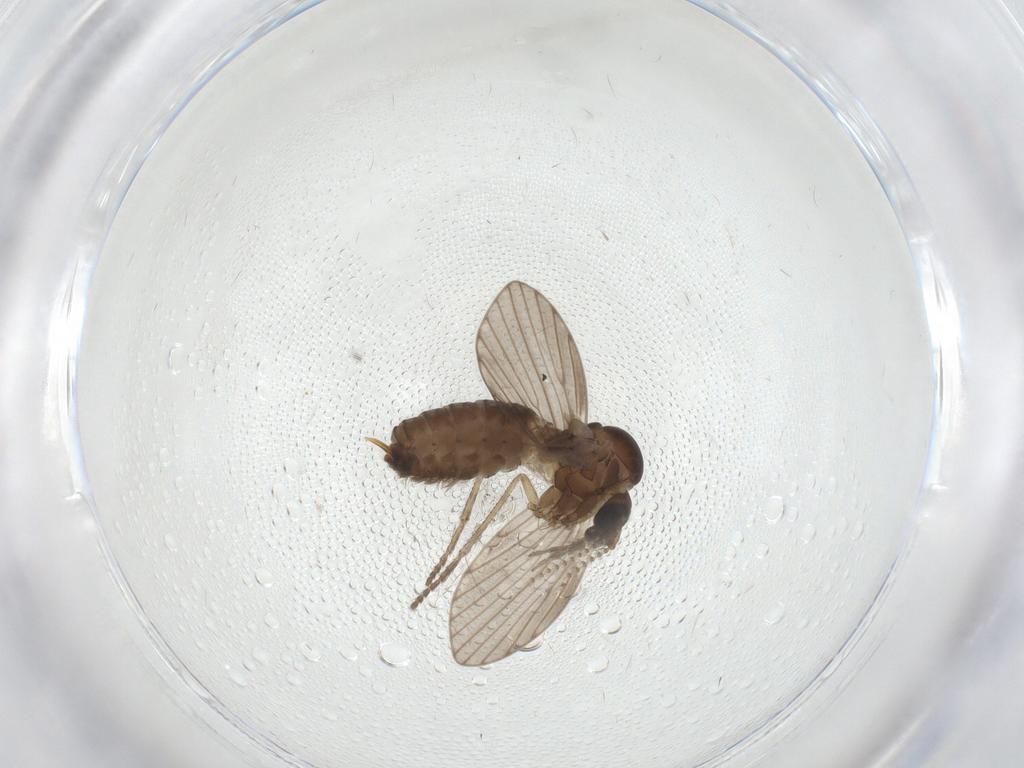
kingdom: Animalia
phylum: Arthropoda
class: Insecta
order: Diptera
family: Psychodidae
